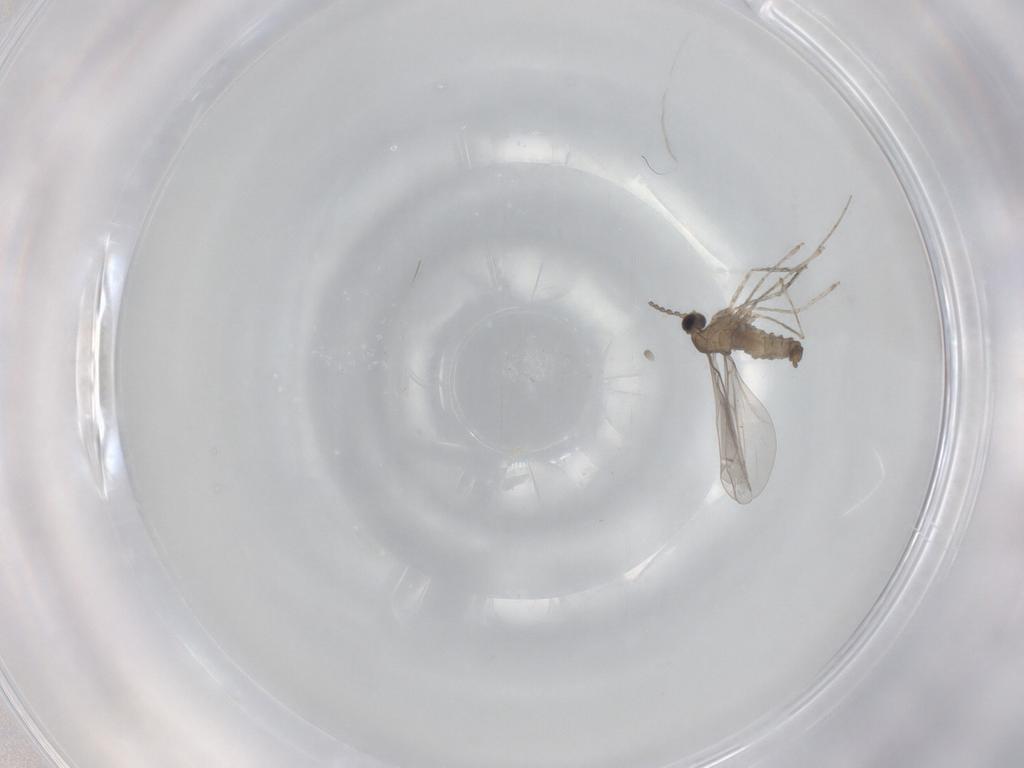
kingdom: Animalia
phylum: Arthropoda
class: Insecta
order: Diptera
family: Cecidomyiidae
